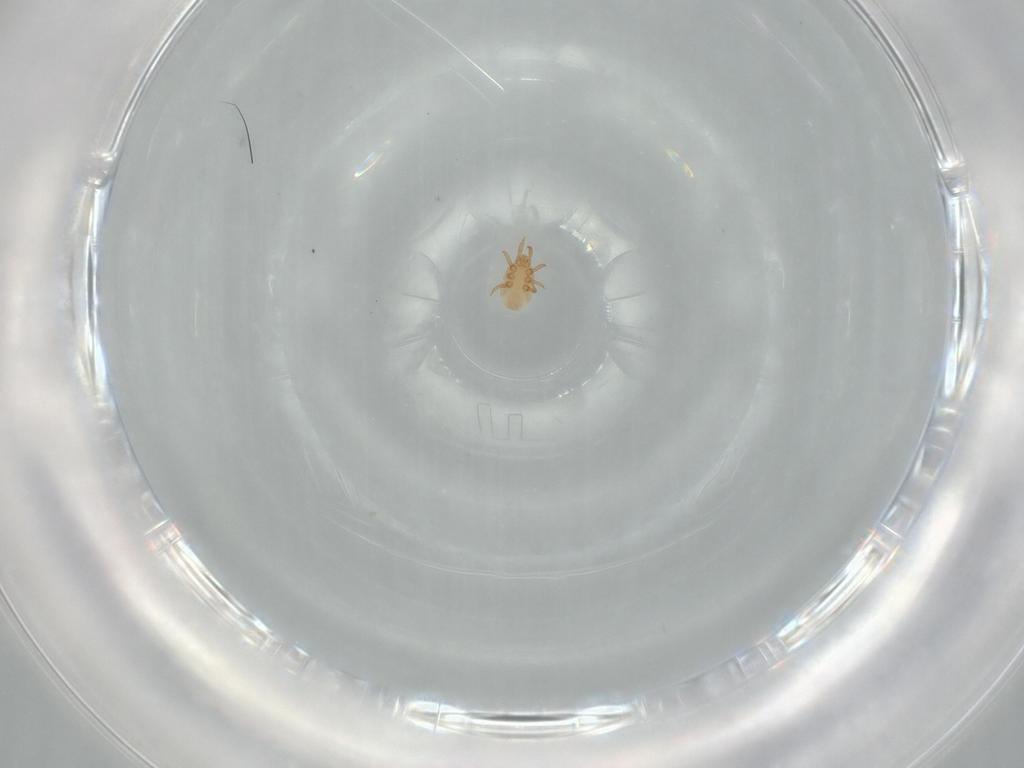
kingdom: Animalia
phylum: Arthropoda
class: Arachnida
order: Mesostigmata
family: Dinychidae
